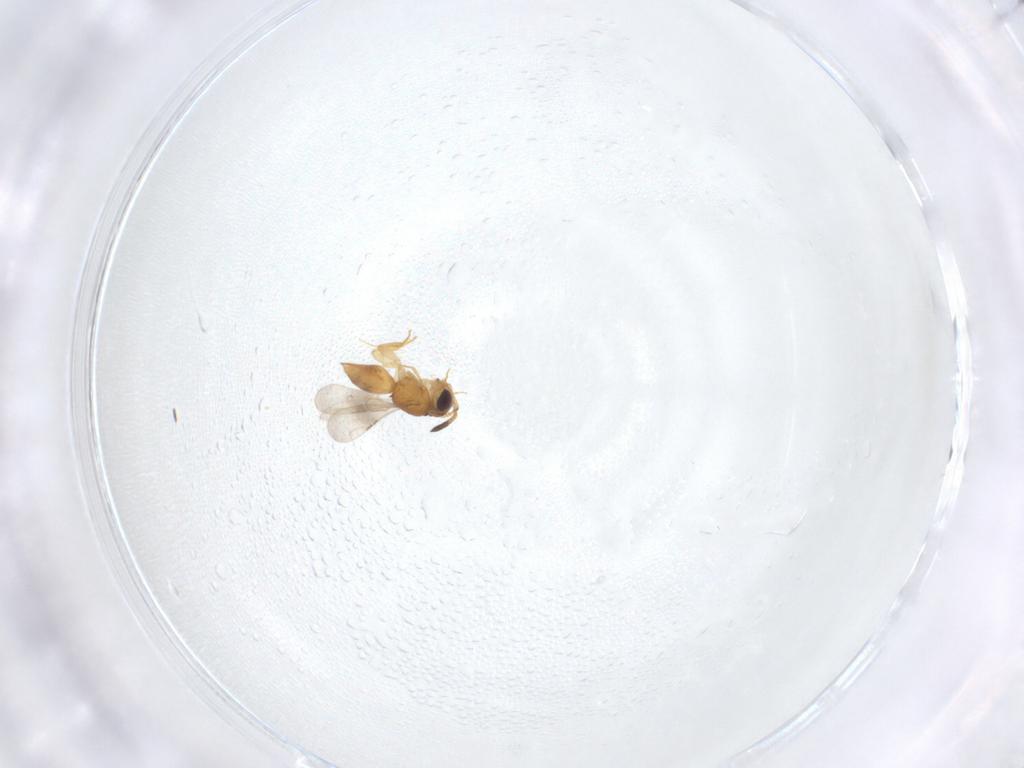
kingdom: Animalia
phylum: Arthropoda
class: Insecta
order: Hymenoptera
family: Ceraphronidae
